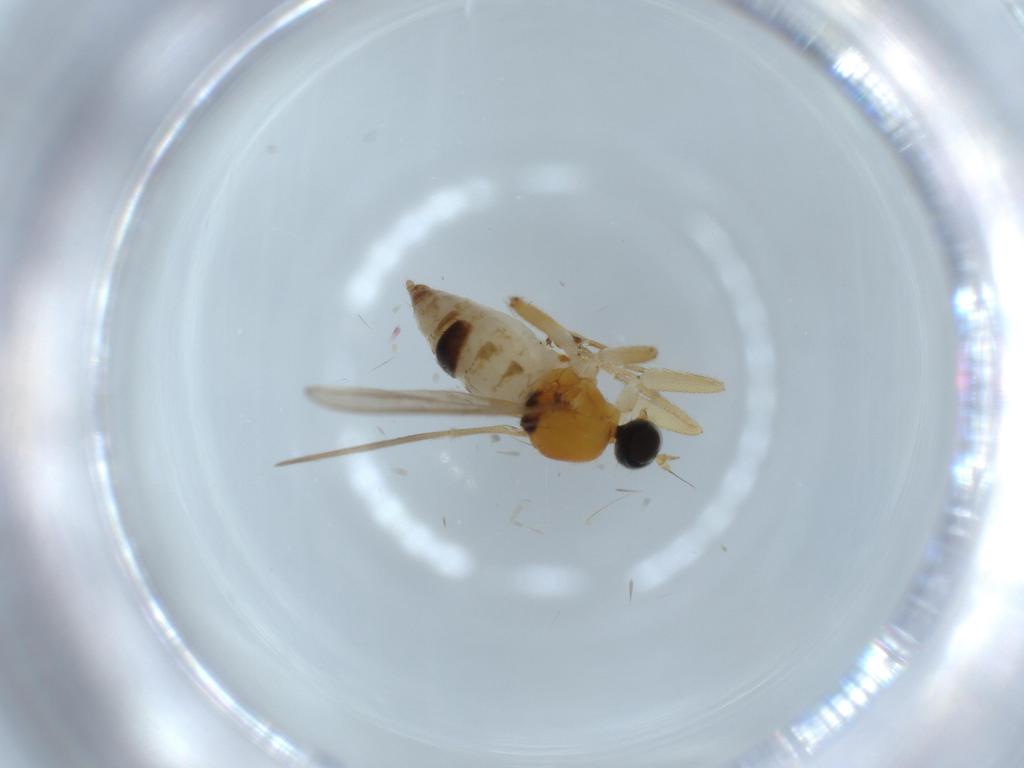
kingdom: Animalia
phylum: Arthropoda
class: Insecta
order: Diptera
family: Hybotidae
